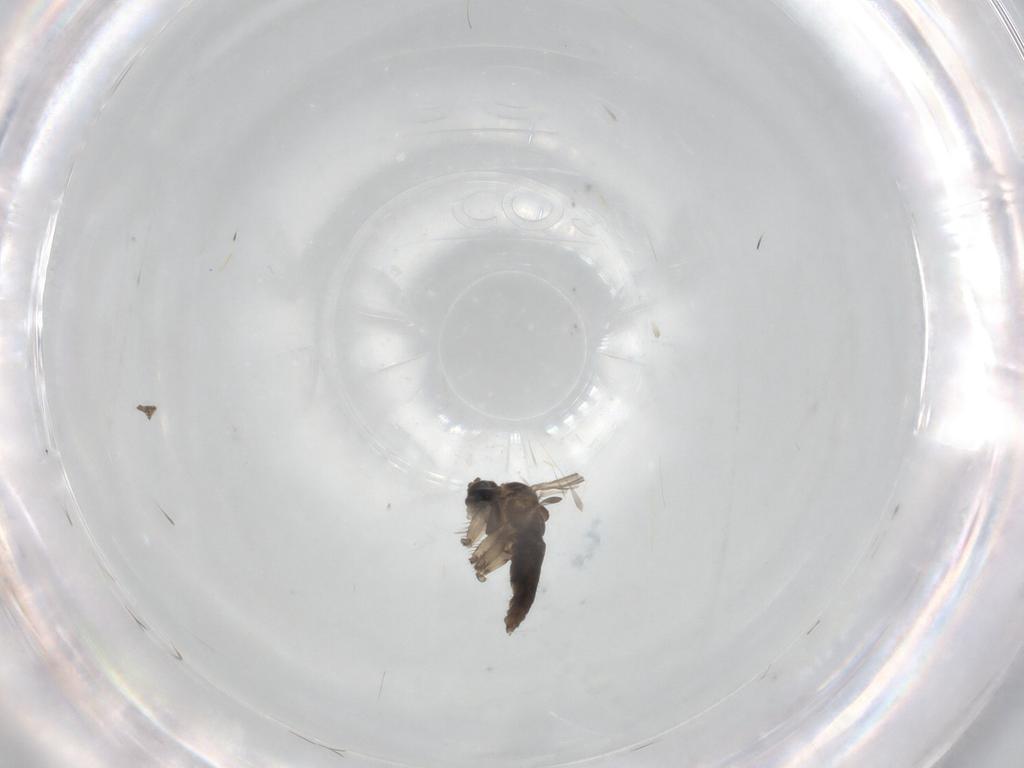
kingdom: Animalia
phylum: Arthropoda
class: Insecta
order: Diptera
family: Sciaridae
